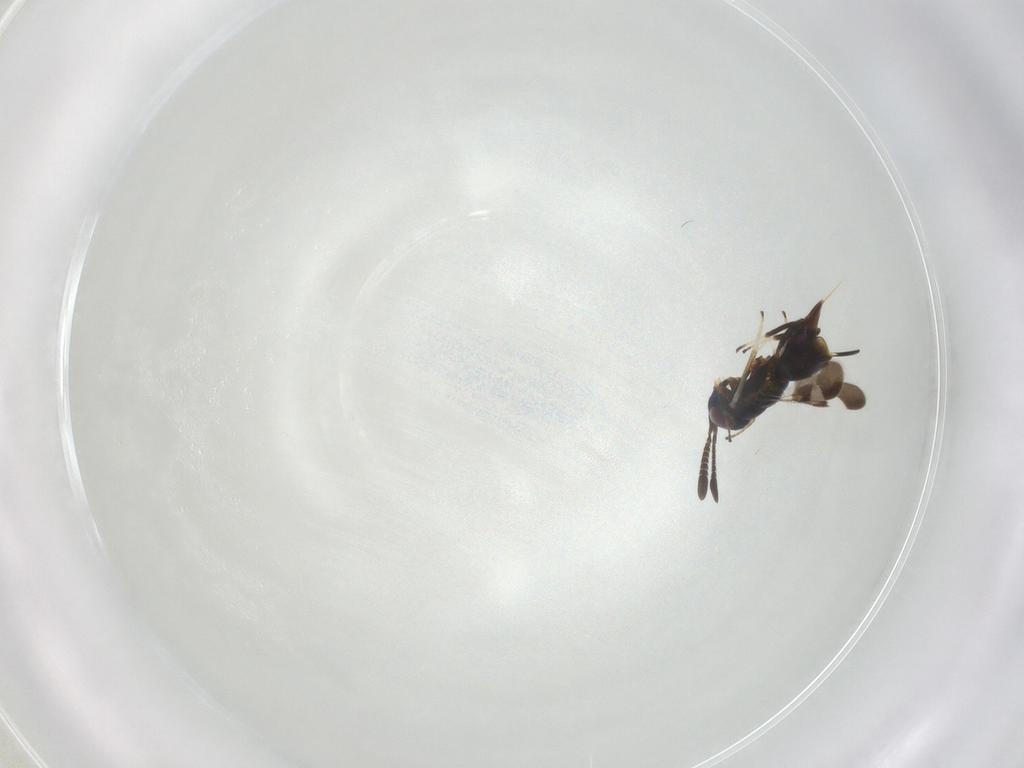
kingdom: Animalia
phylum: Arthropoda
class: Insecta
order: Hymenoptera
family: Encyrtidae
